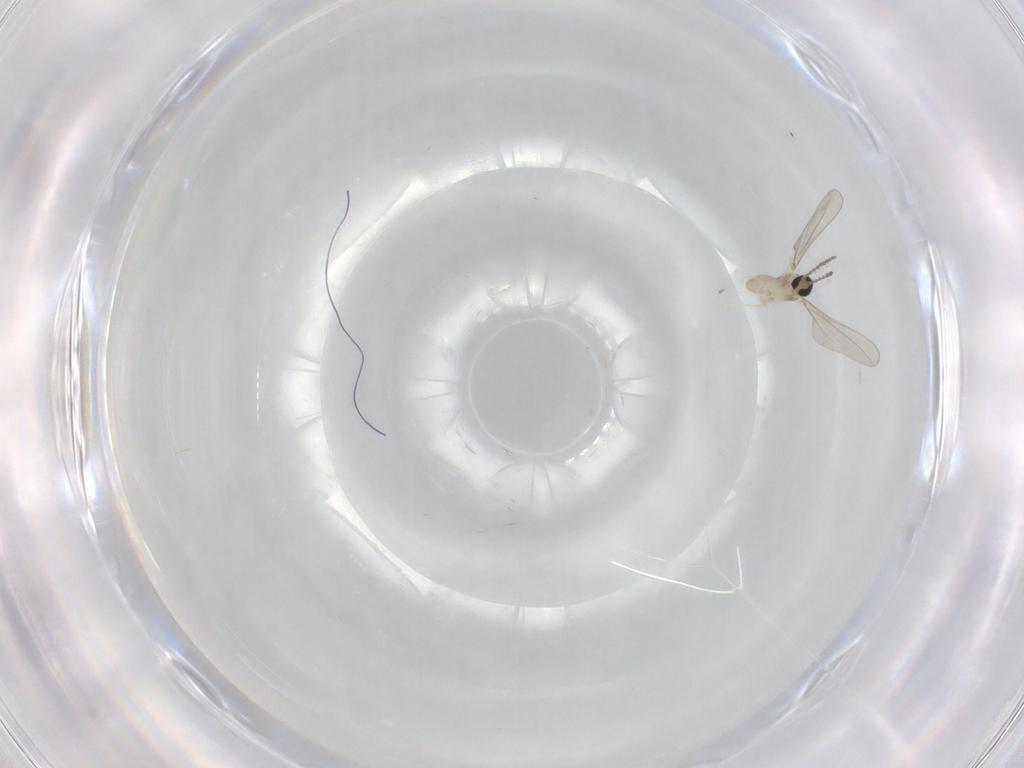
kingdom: Animalia
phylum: Arthropoda
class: Insecta
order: Diptera
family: Cecidomyiidae
